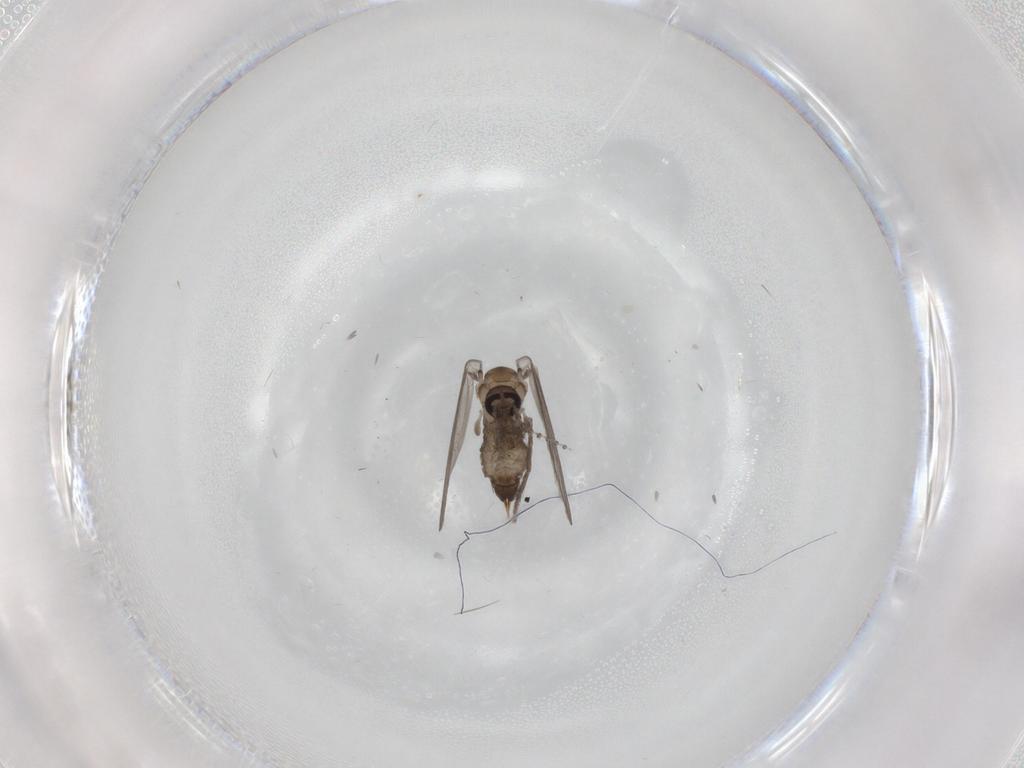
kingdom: Animalia
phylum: Arthropoda
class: Insecta
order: Diptera
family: Psychodidae
